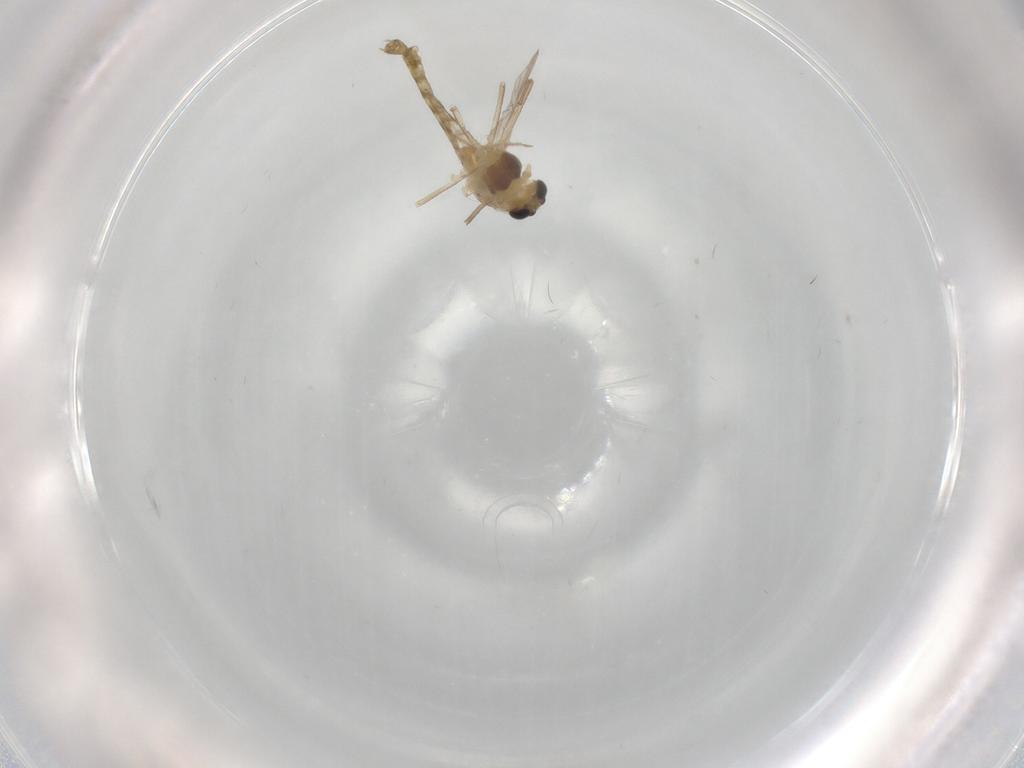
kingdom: Animalia
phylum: Arthropoda
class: Insecta
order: Diptera
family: Chironomidae
